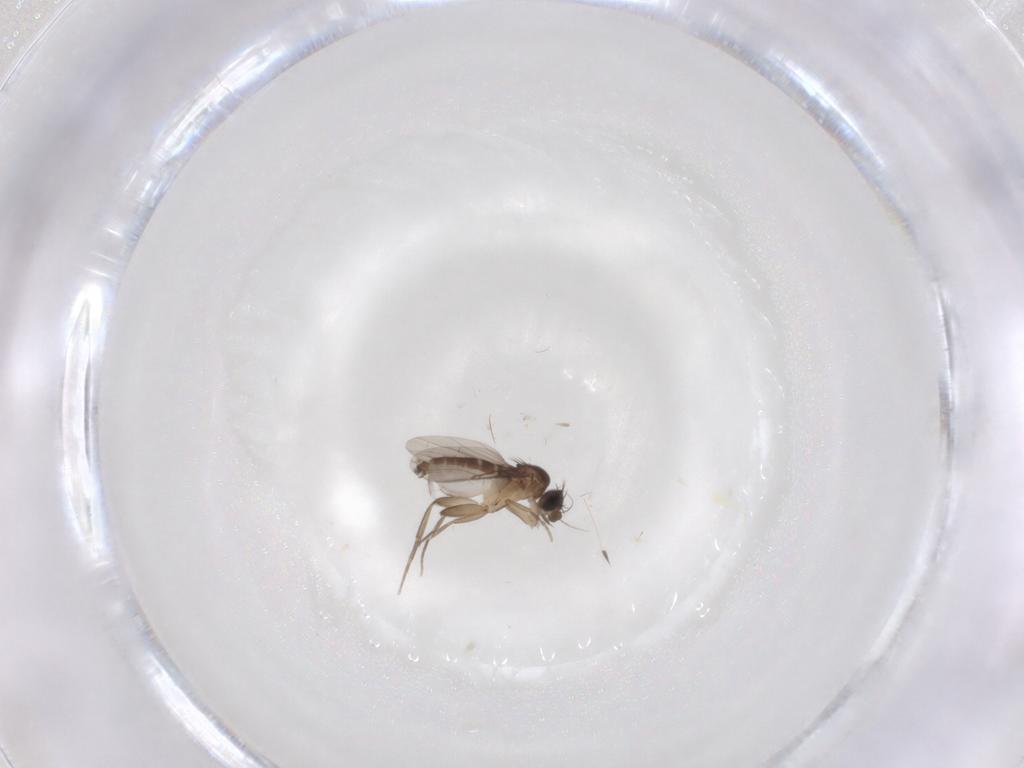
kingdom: Animalia
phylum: Arthropoda
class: Insecta
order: Diptera
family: Phoridae
